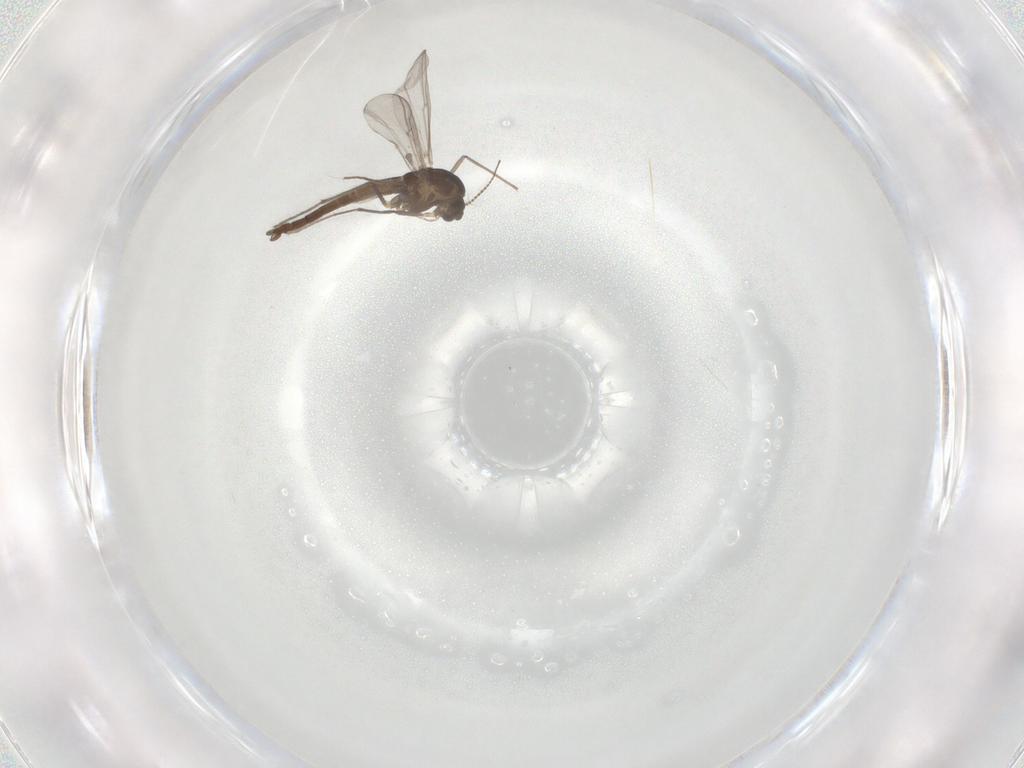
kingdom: Animalia
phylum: Arthropoda
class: Insecta
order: Diptera
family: Chironomidae
